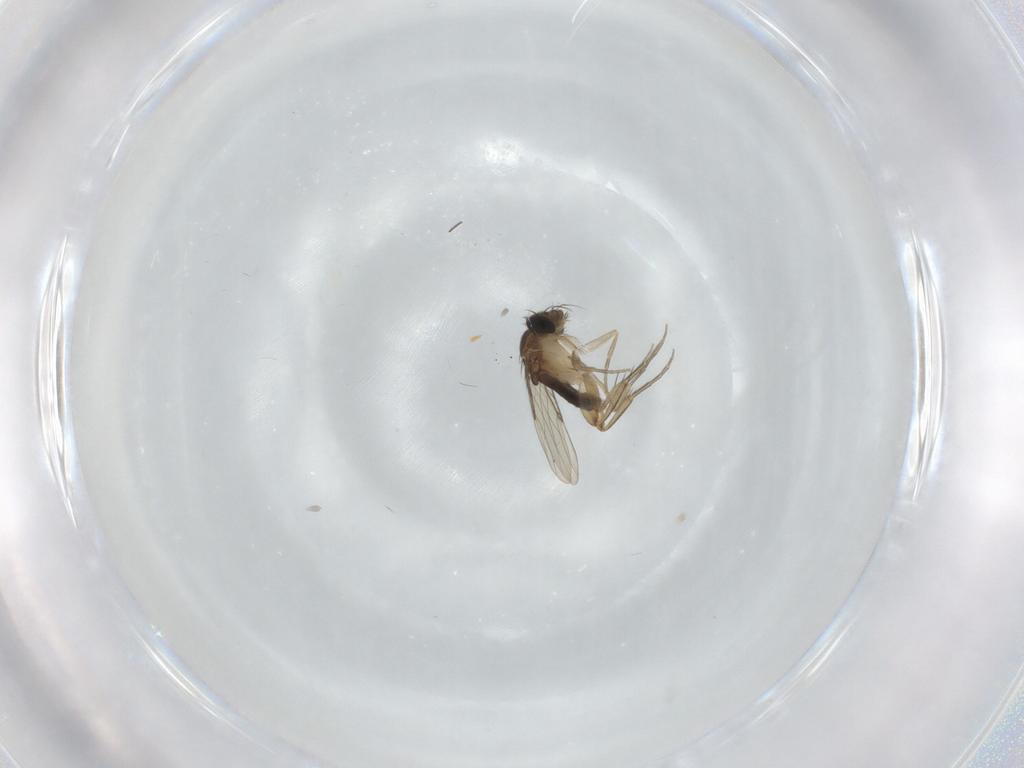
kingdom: Animalia
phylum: Arthropoda
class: Insecta
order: Diptera
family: Phoridae
